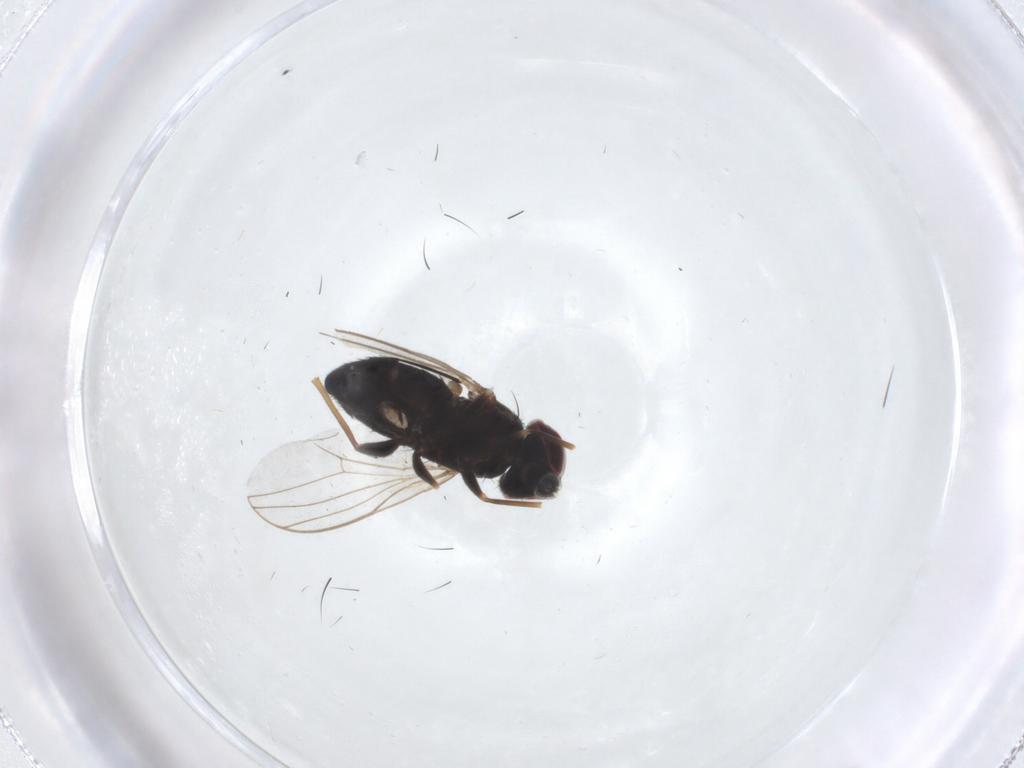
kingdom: Animalia
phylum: Arthropoda
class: Insecta
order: Diptera
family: Dolichopodidae
